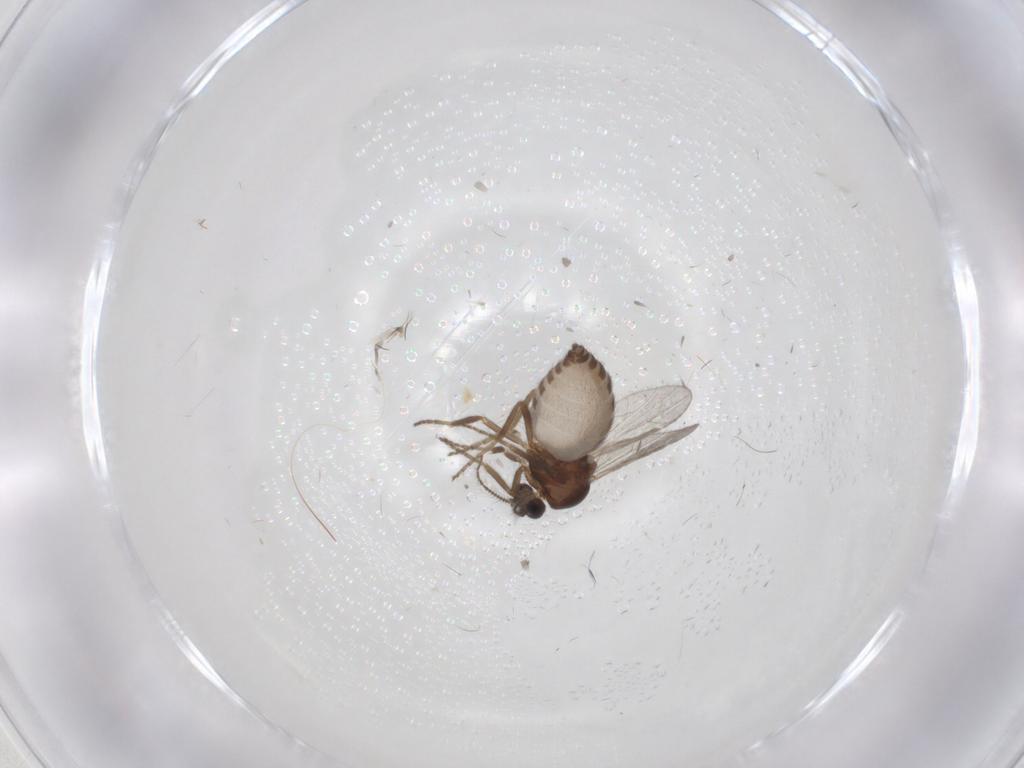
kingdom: Animalia
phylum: Arthropoda
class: Insecta
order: Diptera
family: Ceratopogonidae
